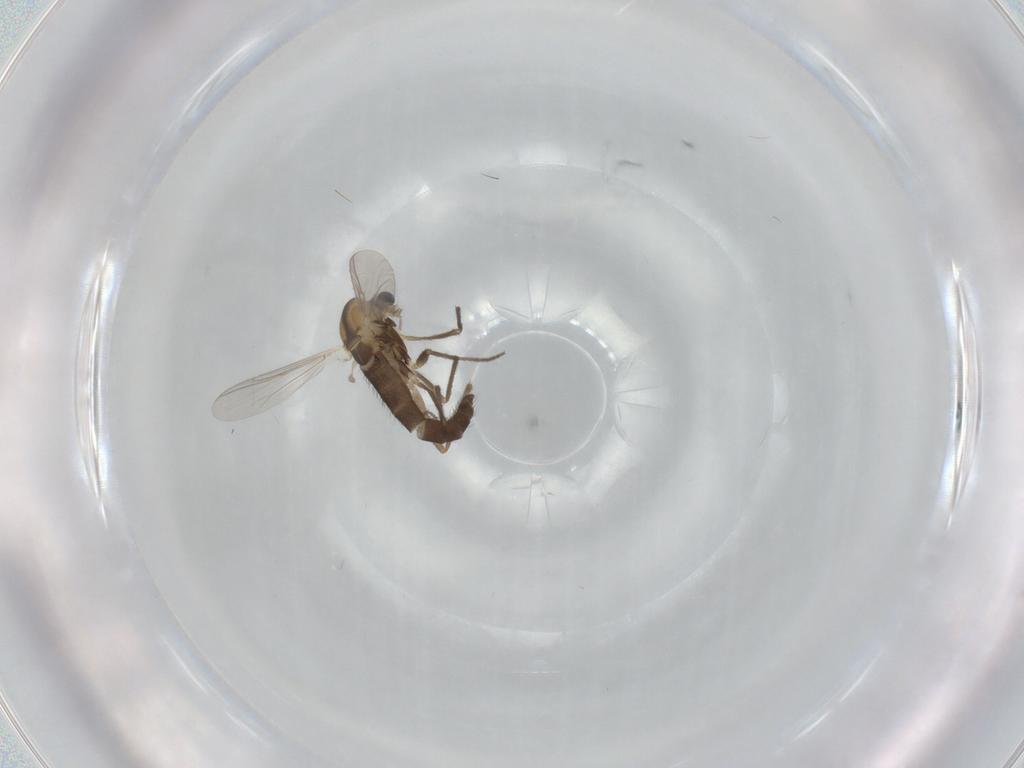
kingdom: Animalia
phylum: Arthropoda
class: Insecta
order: Diptera
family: Chironomidae
